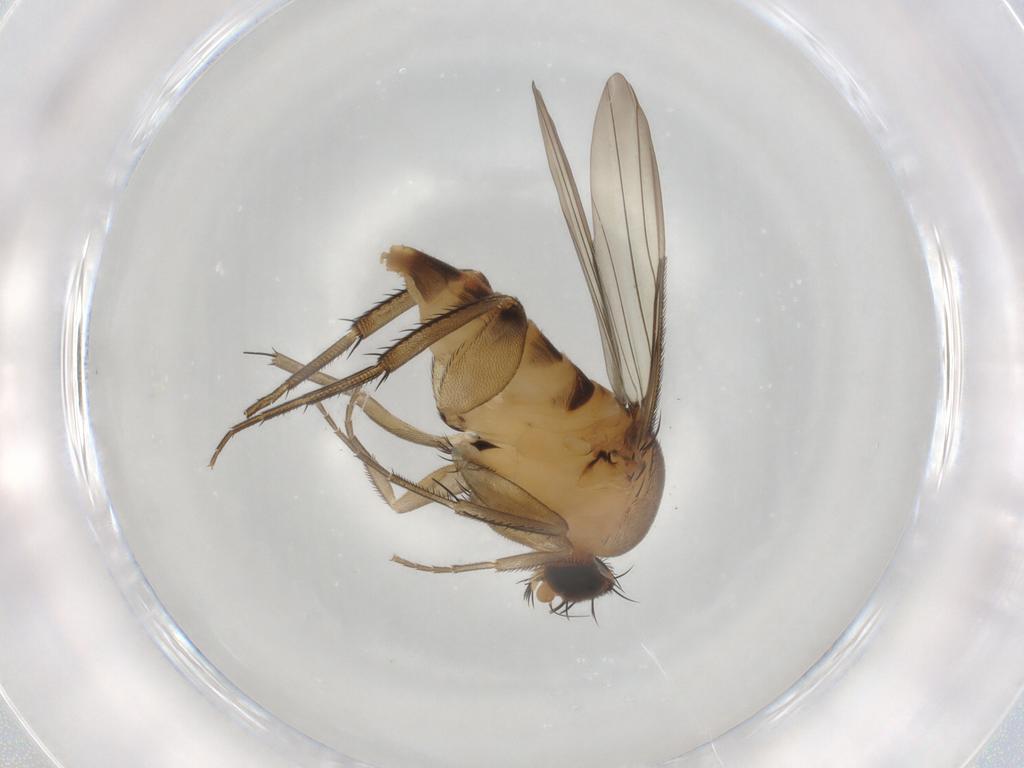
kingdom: Animalia
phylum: Arthropoda
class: Insecta
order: Diptera
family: Phoridae
